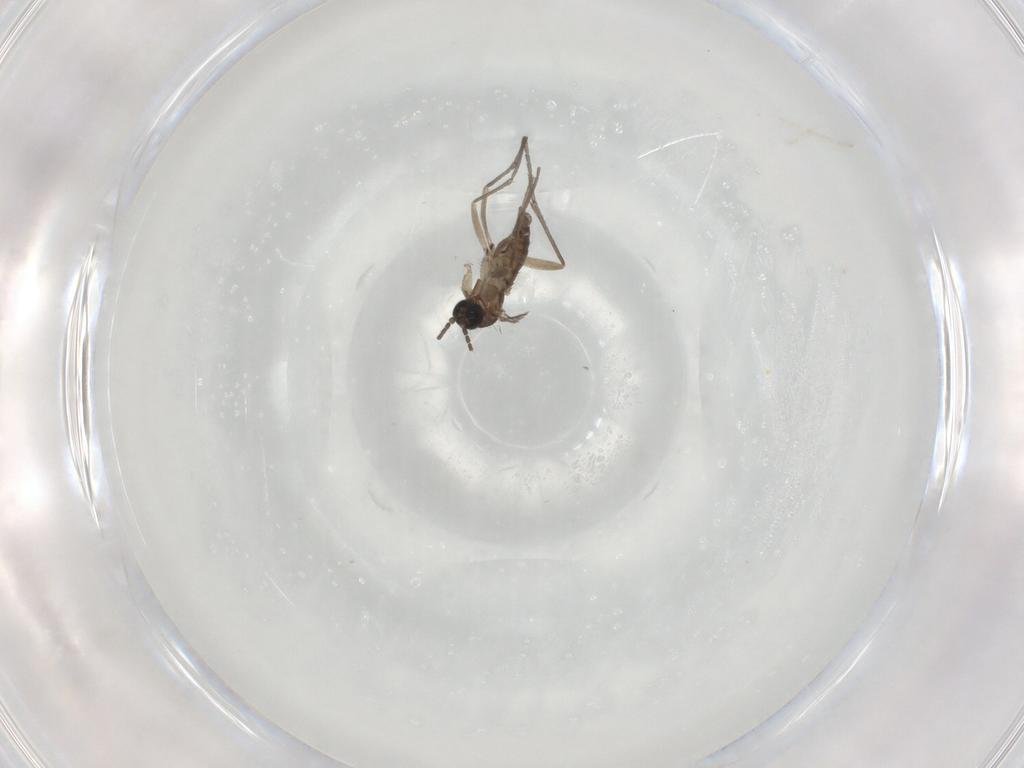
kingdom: Animalia
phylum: Arthropoda
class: Insecta
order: Diptera
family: Sciaridae
